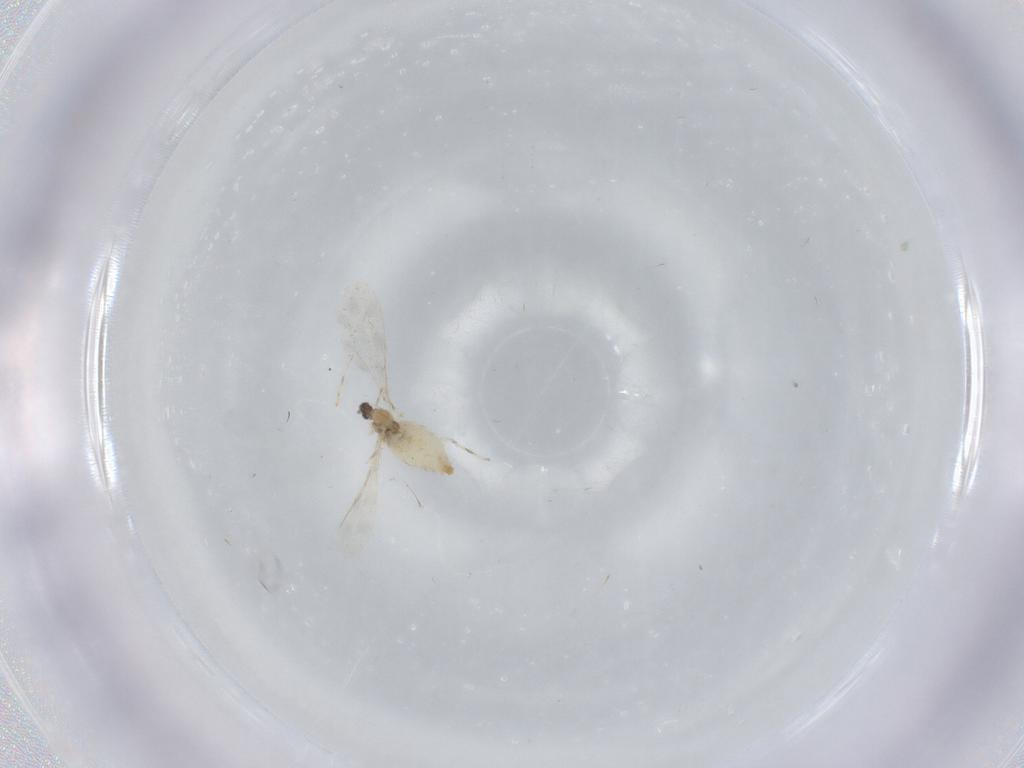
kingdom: Animalia
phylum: Arthropoda
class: Insecta
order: Diptera
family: Cecidomyiidae
